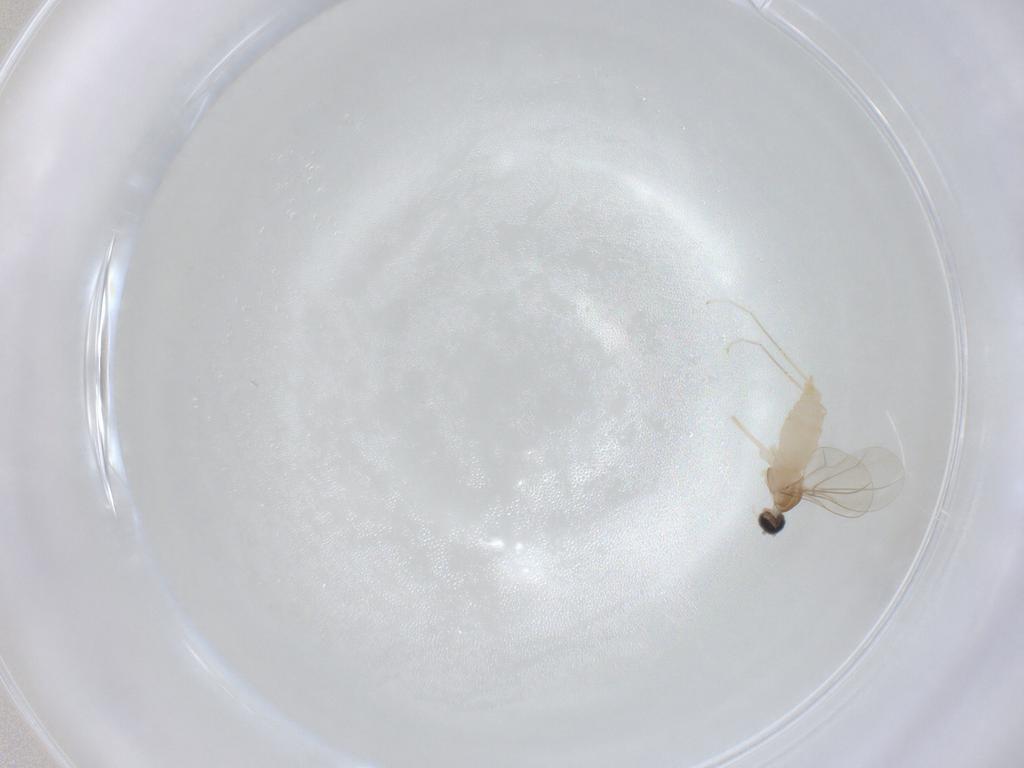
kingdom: Animalia
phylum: Arthropoda
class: Insecta
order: Diptera
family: Cecidomyiidae
